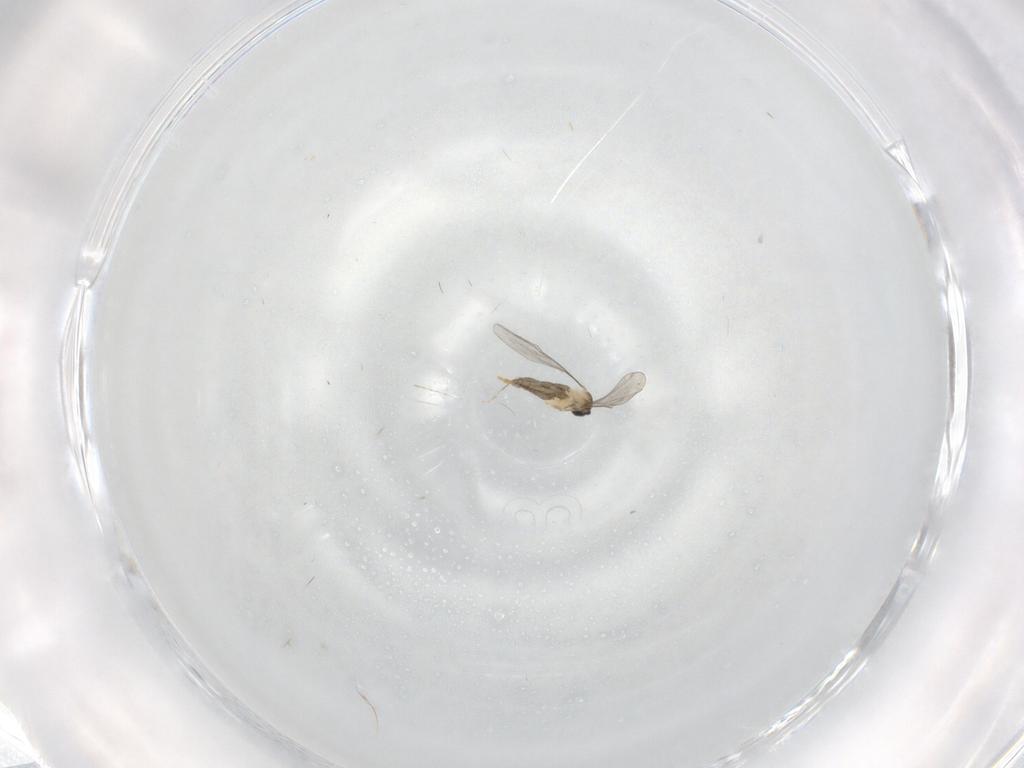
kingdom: Animalia
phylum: Arthropoda
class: Insecta
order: Diptera
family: Cecidomyiidae
